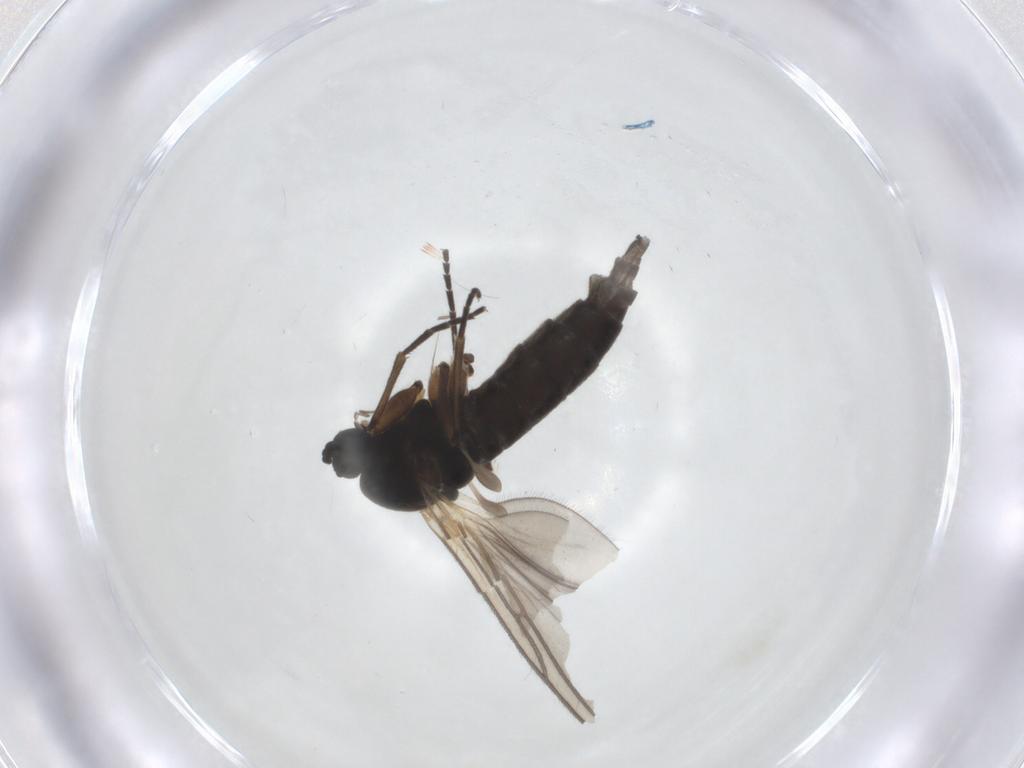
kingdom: Animalia
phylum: Arthropoda
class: Insecta
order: Diptera
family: Sciaridae
